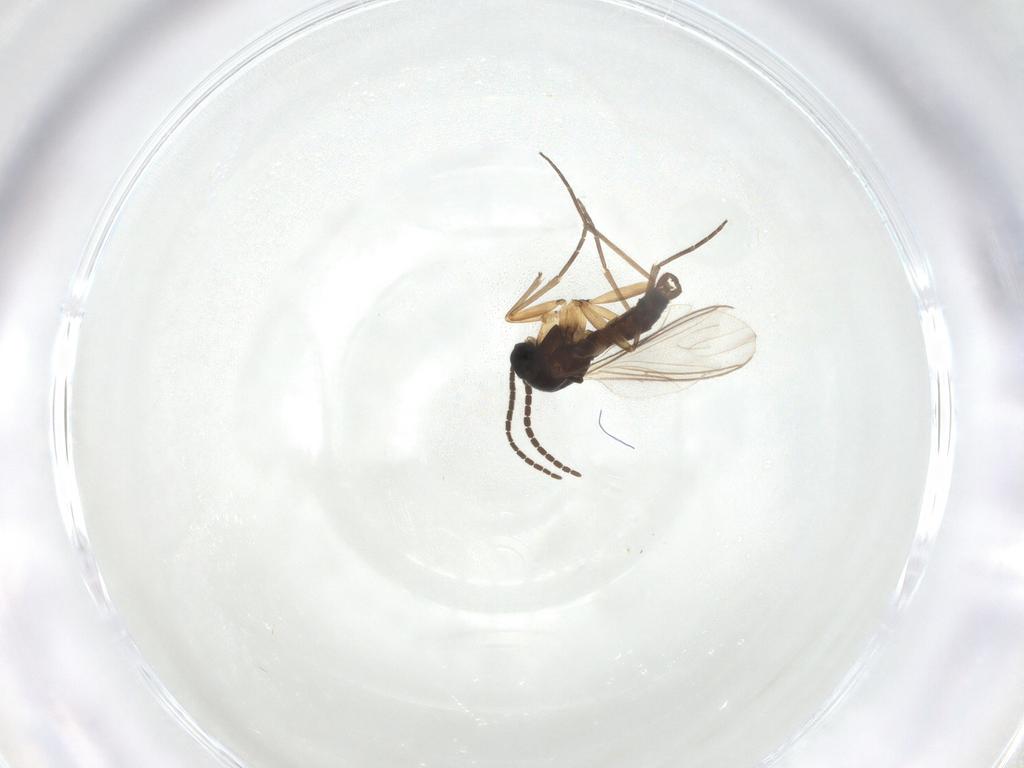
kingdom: Animalia
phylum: Arthropoda
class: Insecta
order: Diptera
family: Sciaridae
